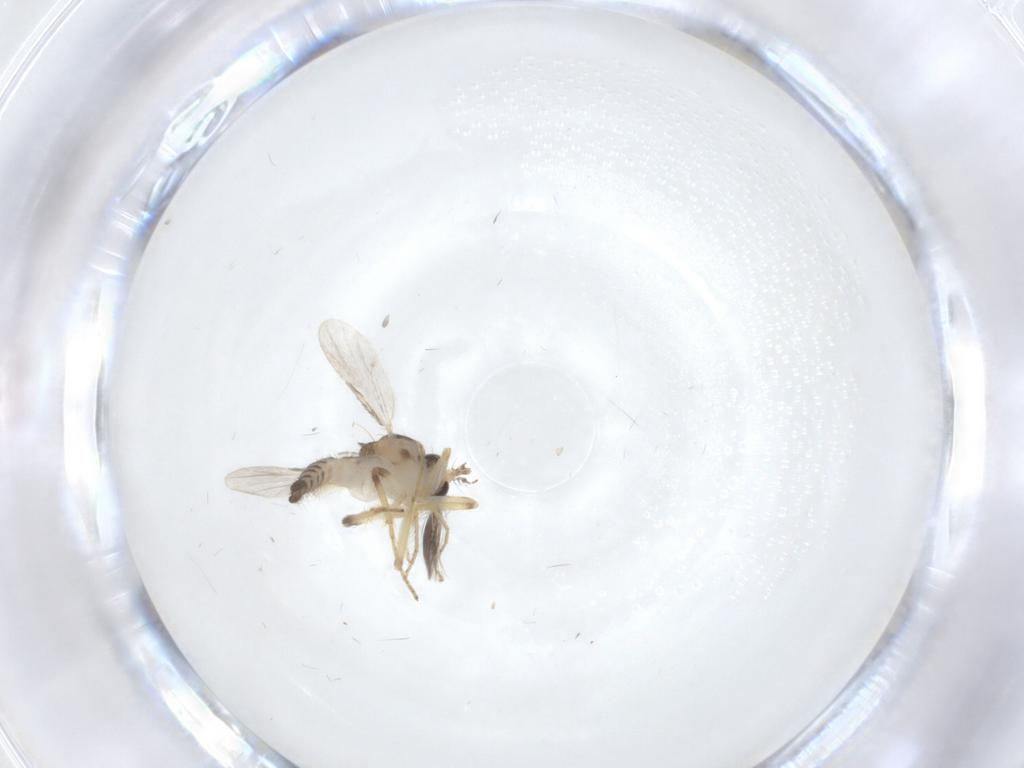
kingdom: Animalia
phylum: Arthropoda
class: Insecta
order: Diptera
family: Ceratopogonidae
